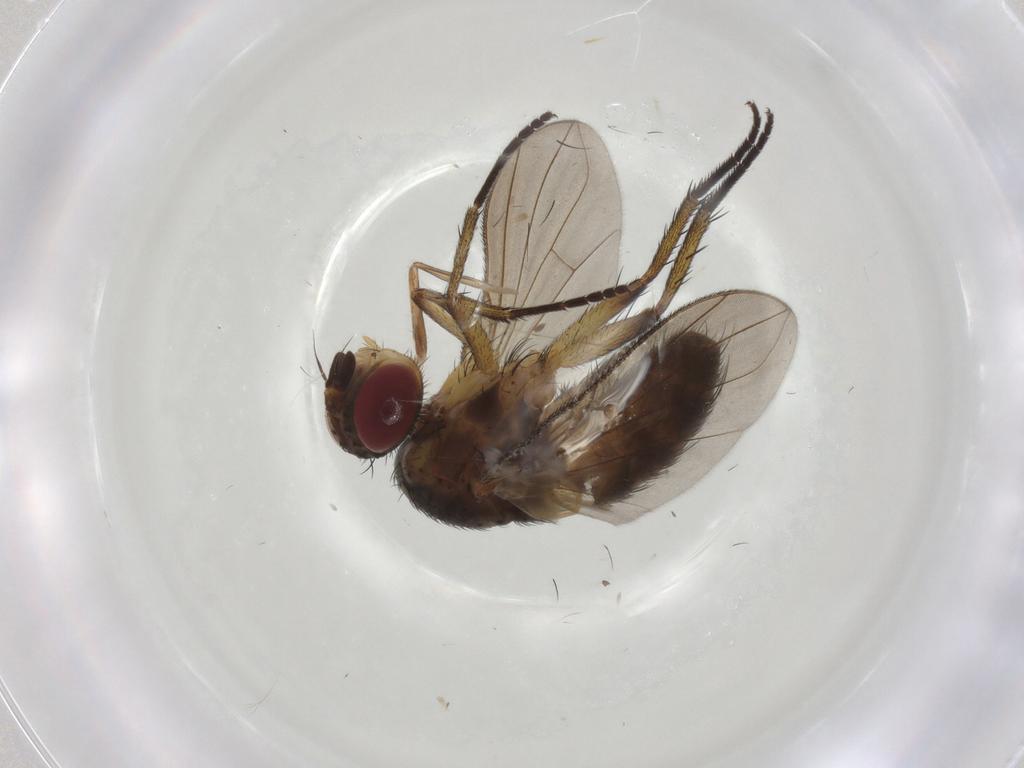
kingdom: Animalia
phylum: Arthropoda
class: Insecta
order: Diptera
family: Tachinidae
